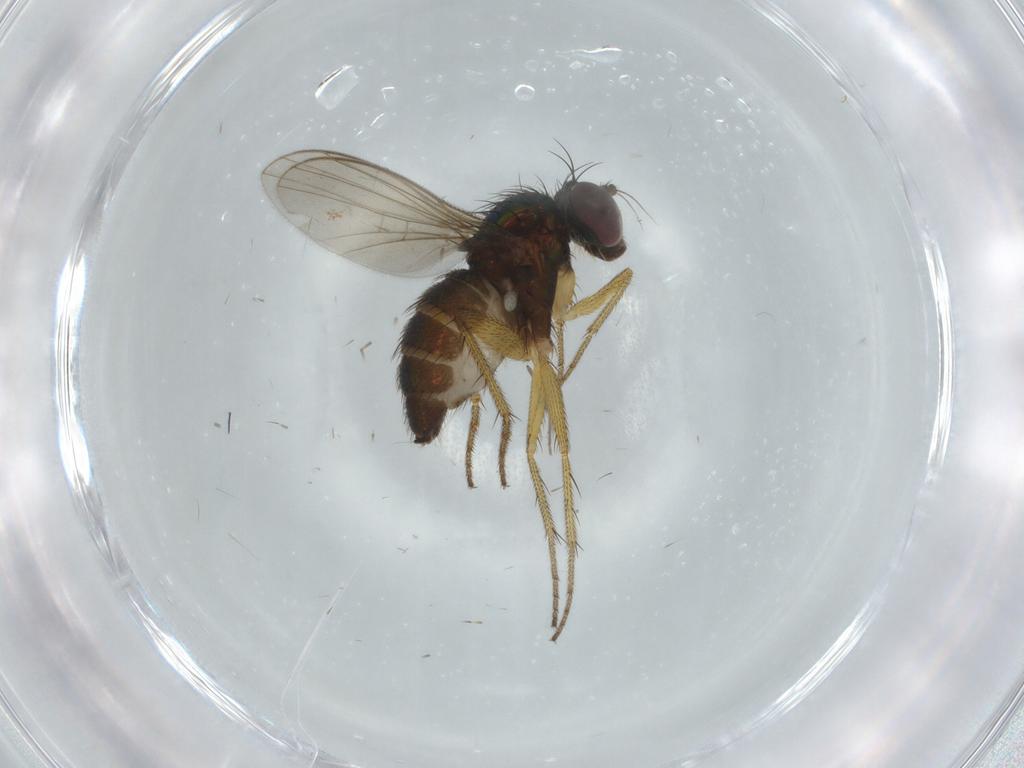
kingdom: Animalia
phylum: Arthropoda
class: Insecta
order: Diptera
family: Dolichopodidae
